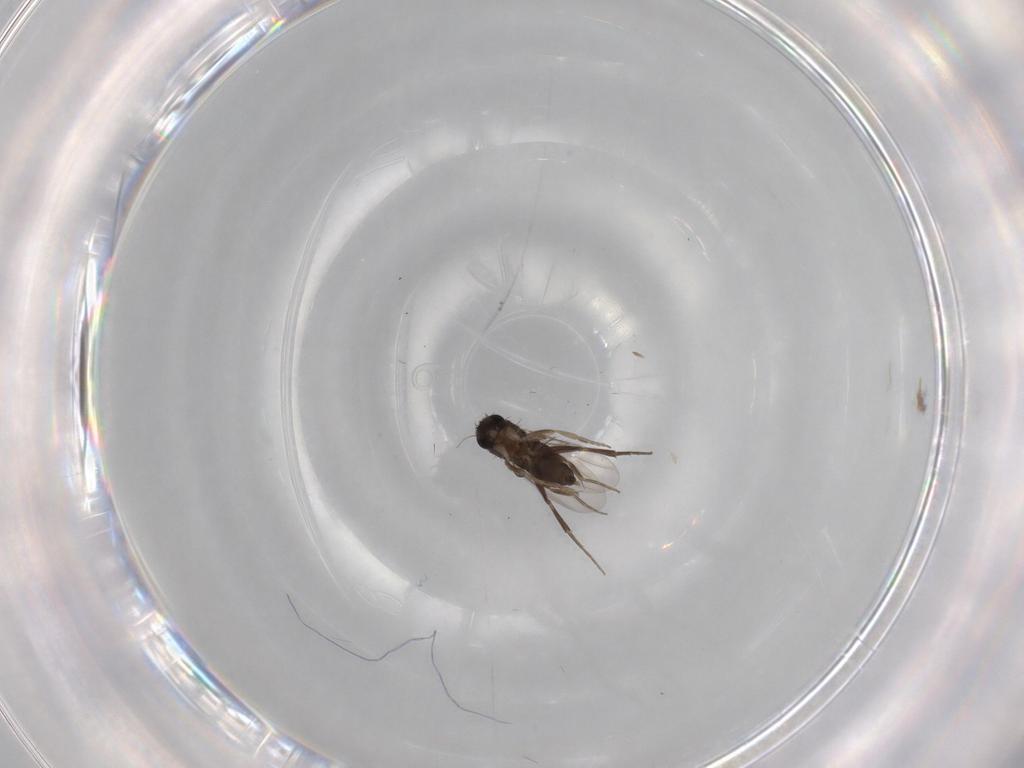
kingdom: Animalia
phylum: Arthropoda
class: Insecta
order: Diptera
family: Phoridae
